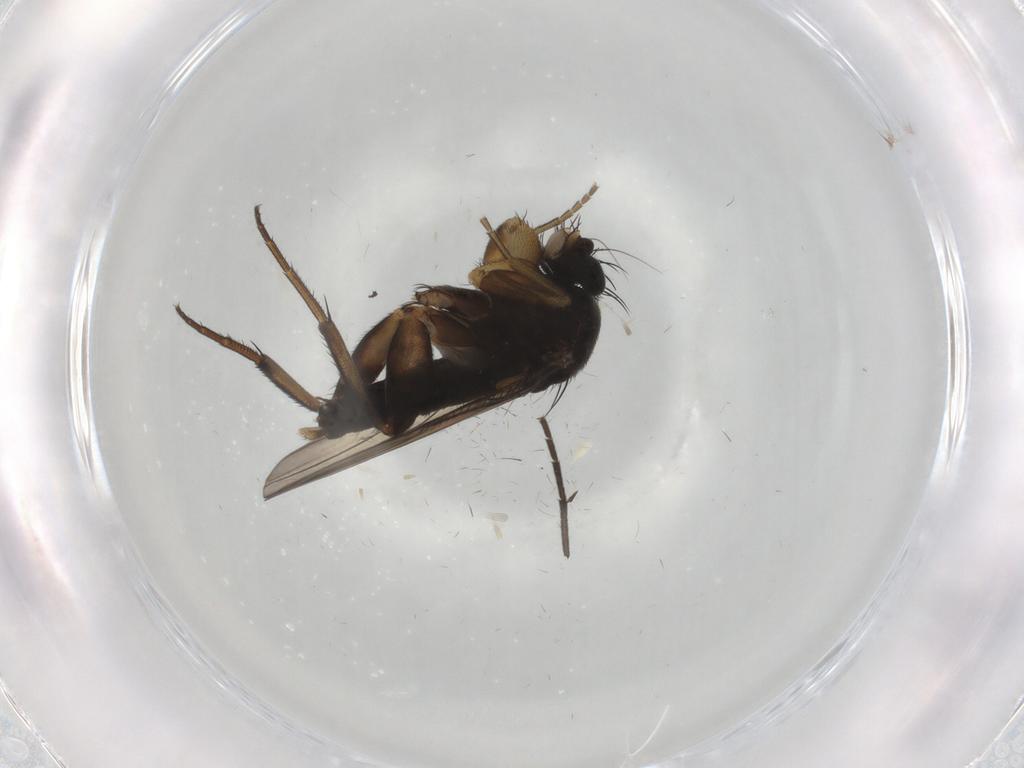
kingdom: Animalia
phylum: Arthropoda
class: Insecta
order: Diptera
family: Phoridae
